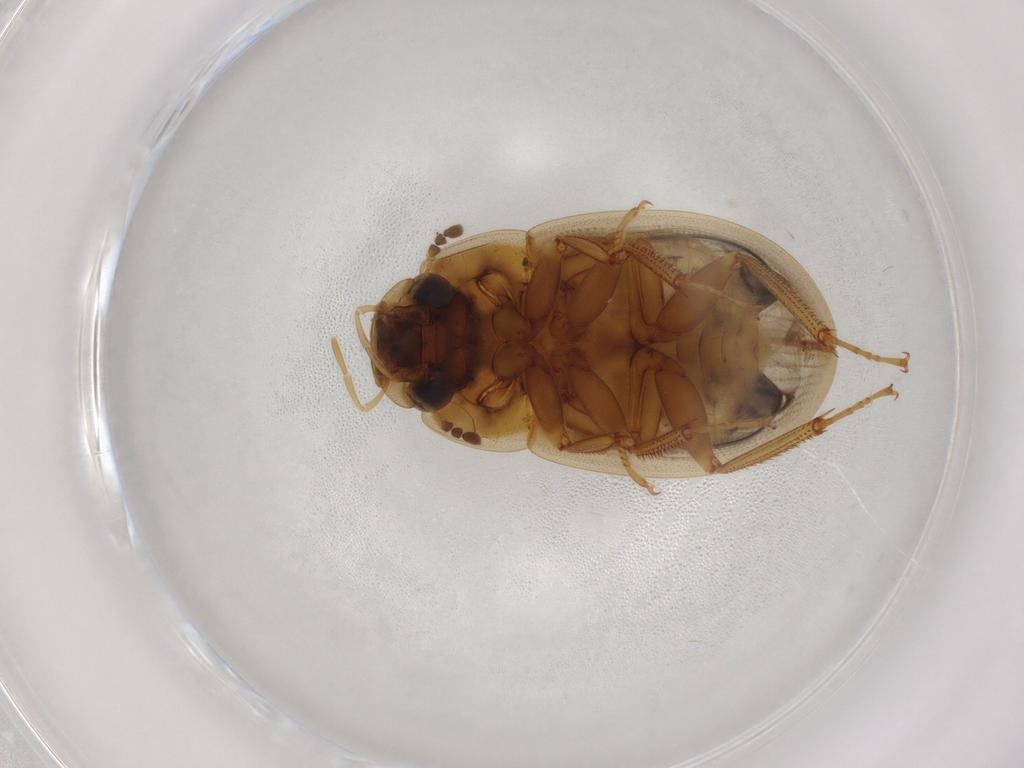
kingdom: Animalia
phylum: Arthropoda
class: Insecta
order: Coleoptera
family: Hydrophilidae
